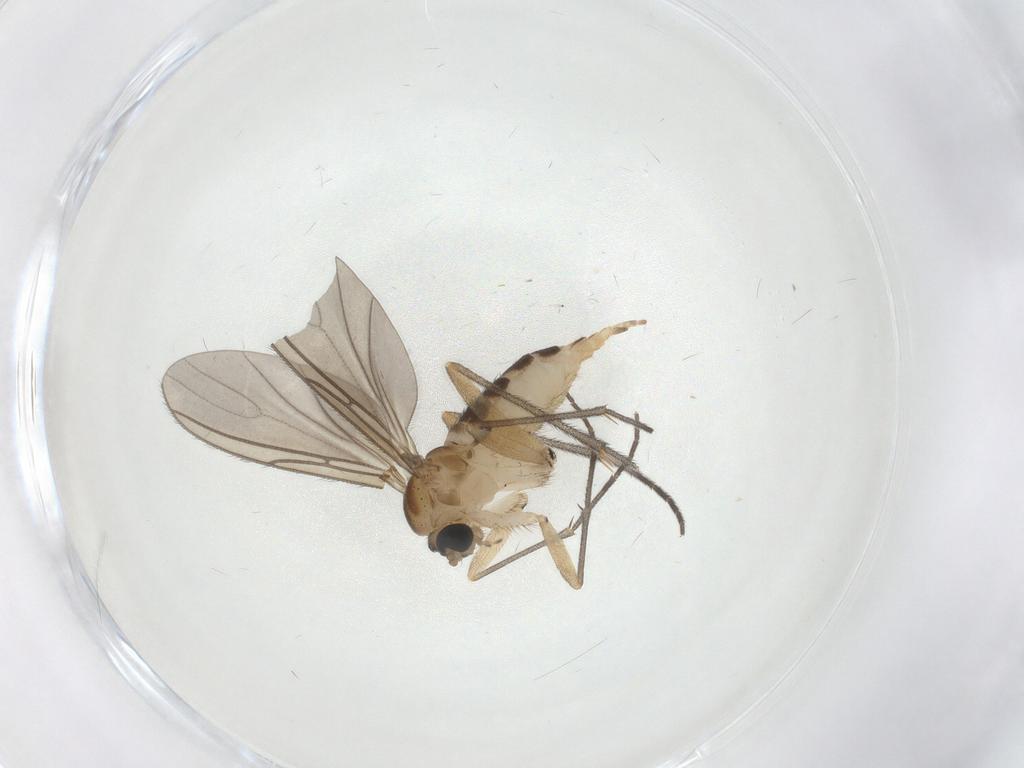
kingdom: Animalia
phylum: Arthropoda
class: Insecta
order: Diptera
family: Sciaridae
